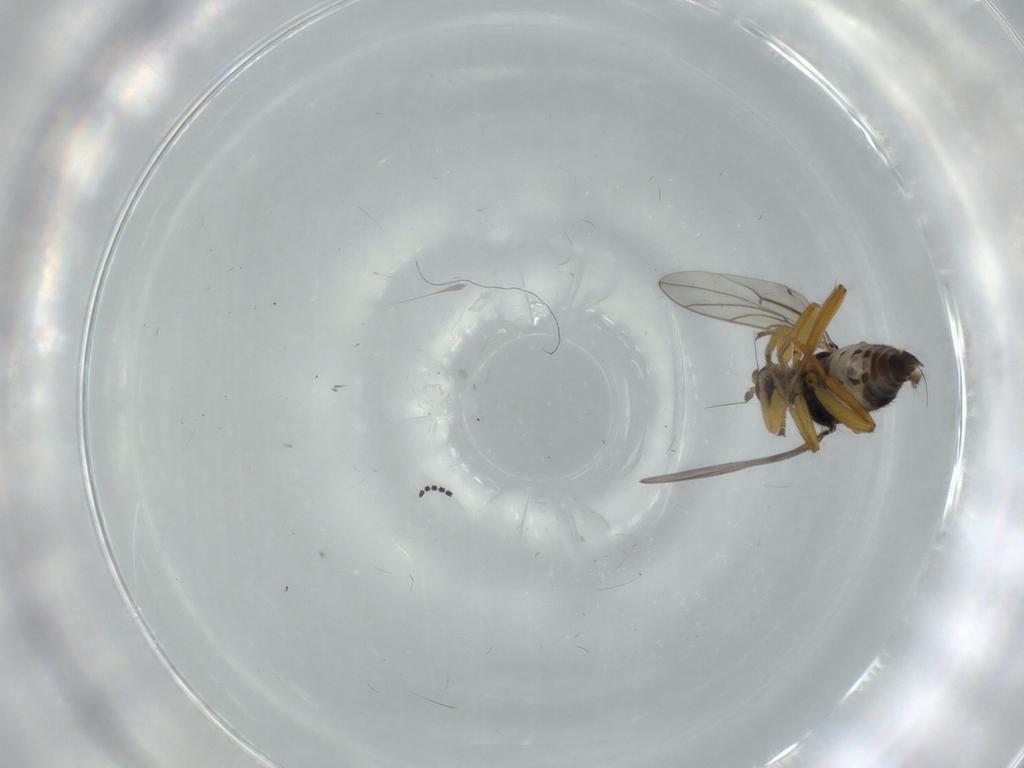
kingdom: Animalia
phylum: Arthropoda
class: Insecta
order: Diptera
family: Hybotidae
